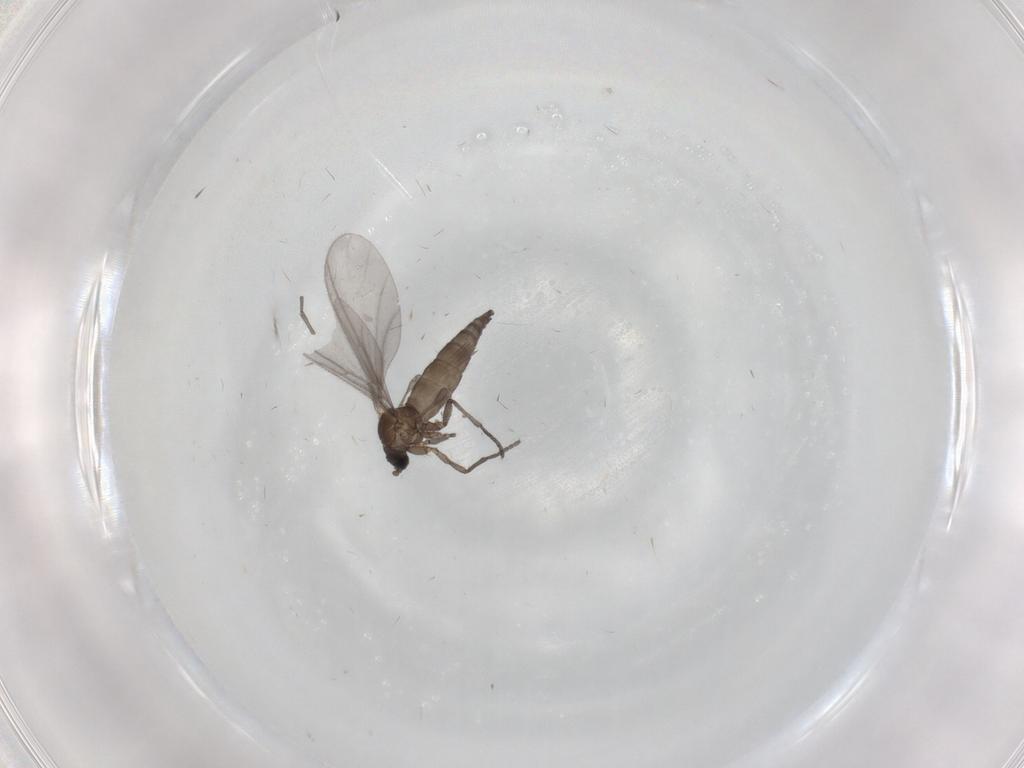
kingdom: Animalia
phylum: Arthropoda
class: Insecta
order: Diptera
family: Sciaridae
